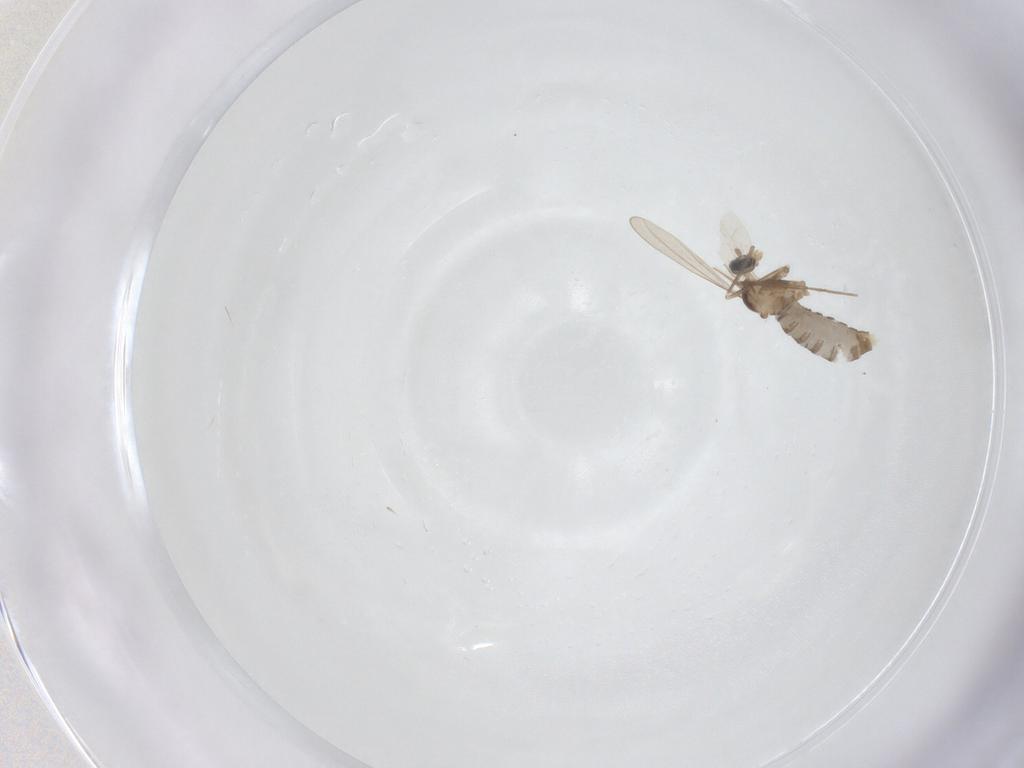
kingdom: Animalia
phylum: Arthropoda
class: Insecta
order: Diptera
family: Cecidomyiidae
